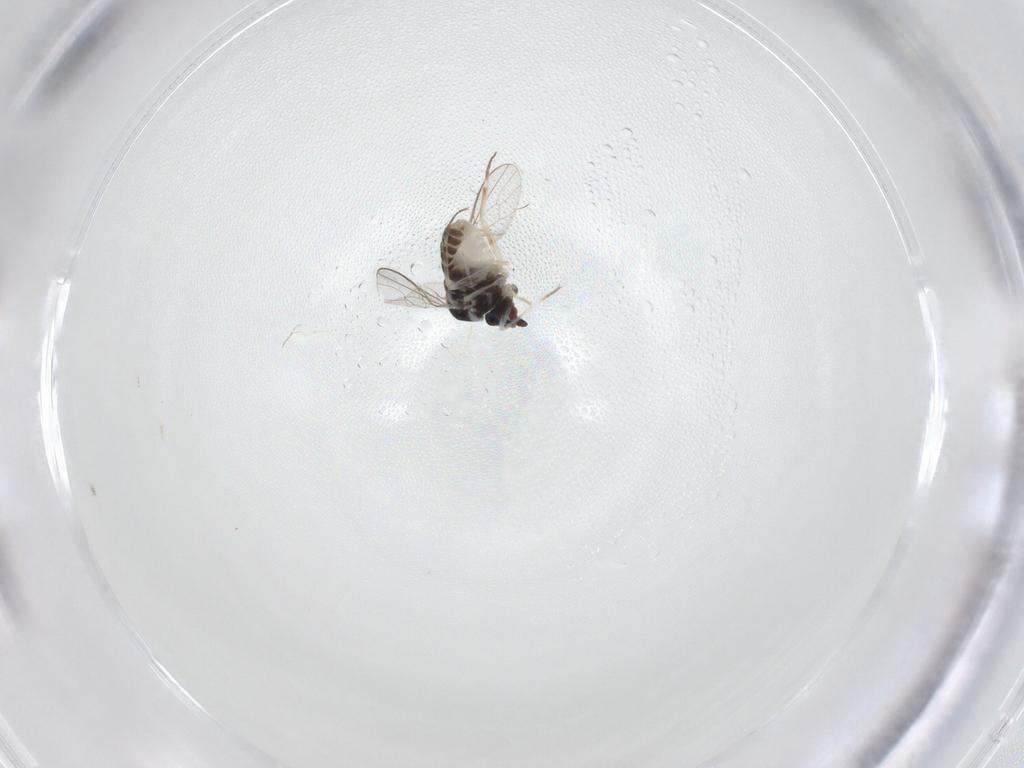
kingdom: Animalia
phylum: Arthropoda
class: Insecta
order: Diptera
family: Bombyliidae
